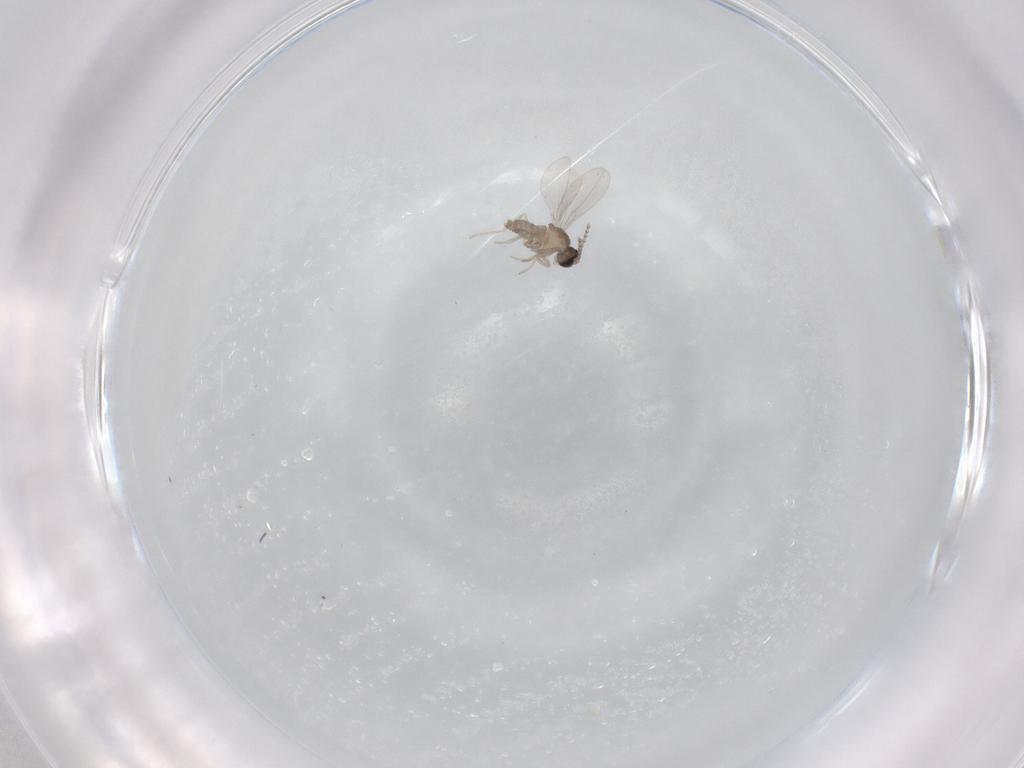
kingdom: Animalia
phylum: Arthropoda
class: Insecta
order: Diptera
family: Cecidomyiidae
